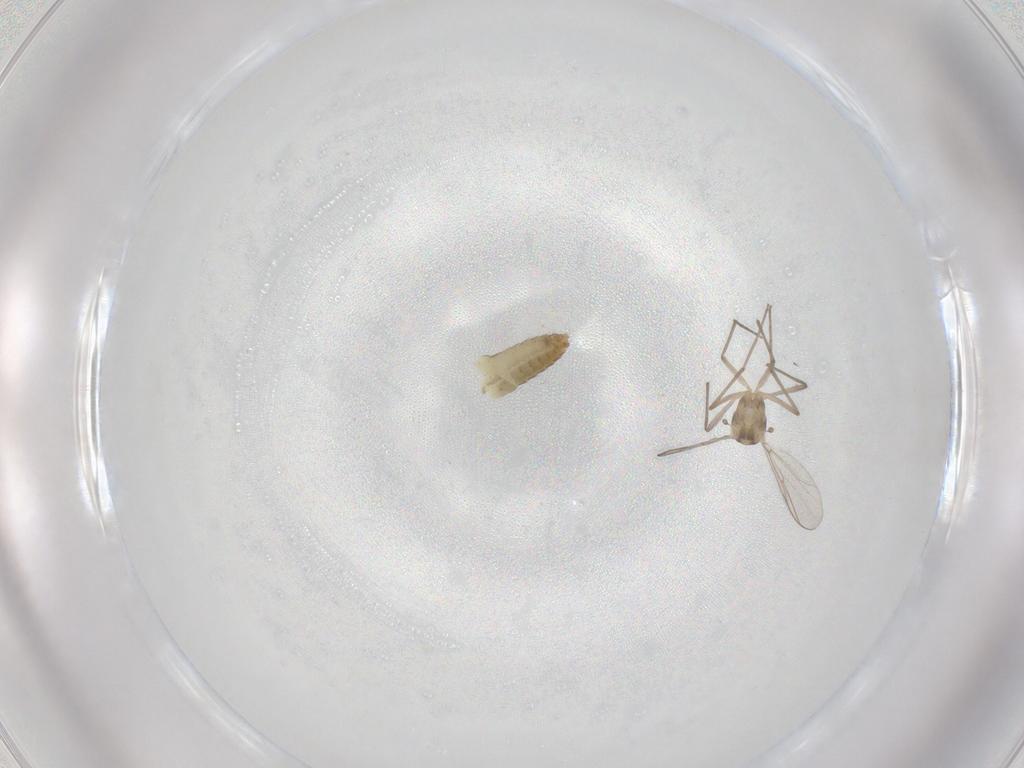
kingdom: Animalia
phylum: Arthropoda
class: Insecta
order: Diptera
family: Chironomidae
